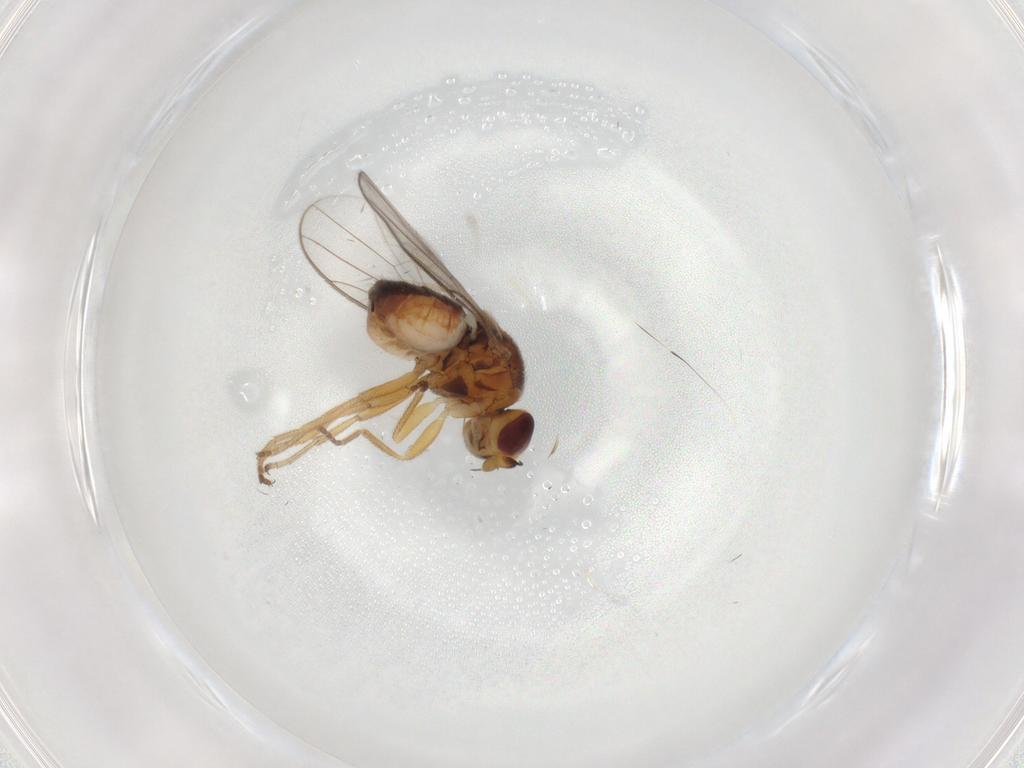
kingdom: Animalia
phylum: Arthropoda
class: Insecta
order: Diptera
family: Chloropidae
